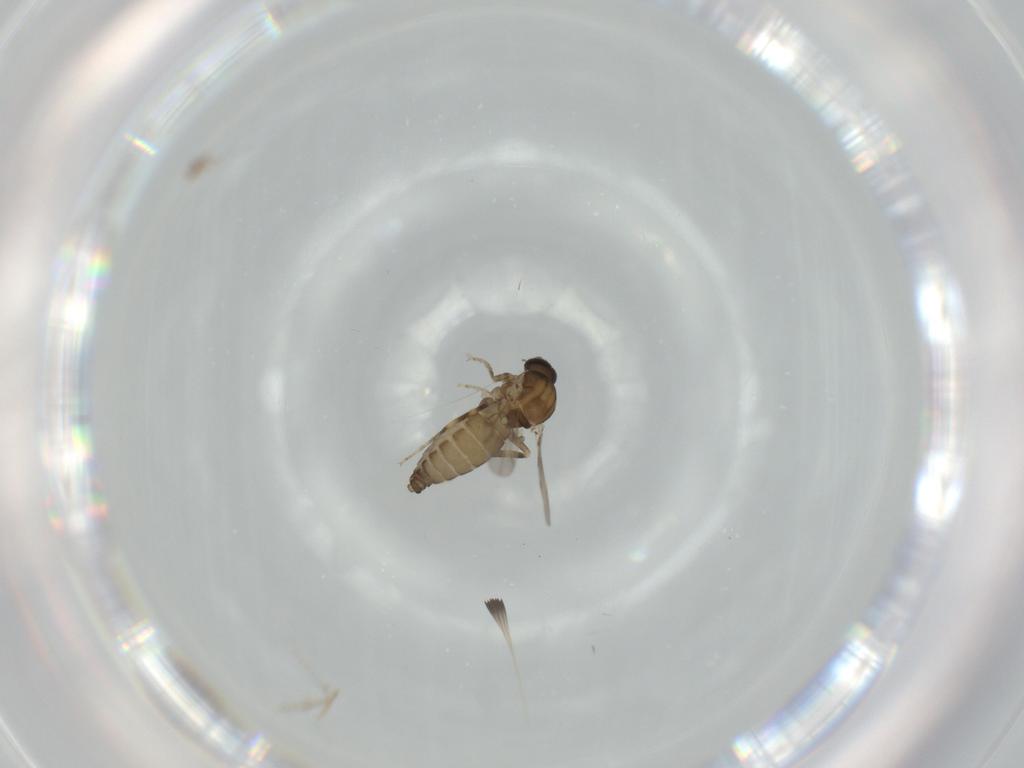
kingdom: Animalia
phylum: Arthropoda
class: Insecta
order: Diptera
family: Ceratopogonidae
